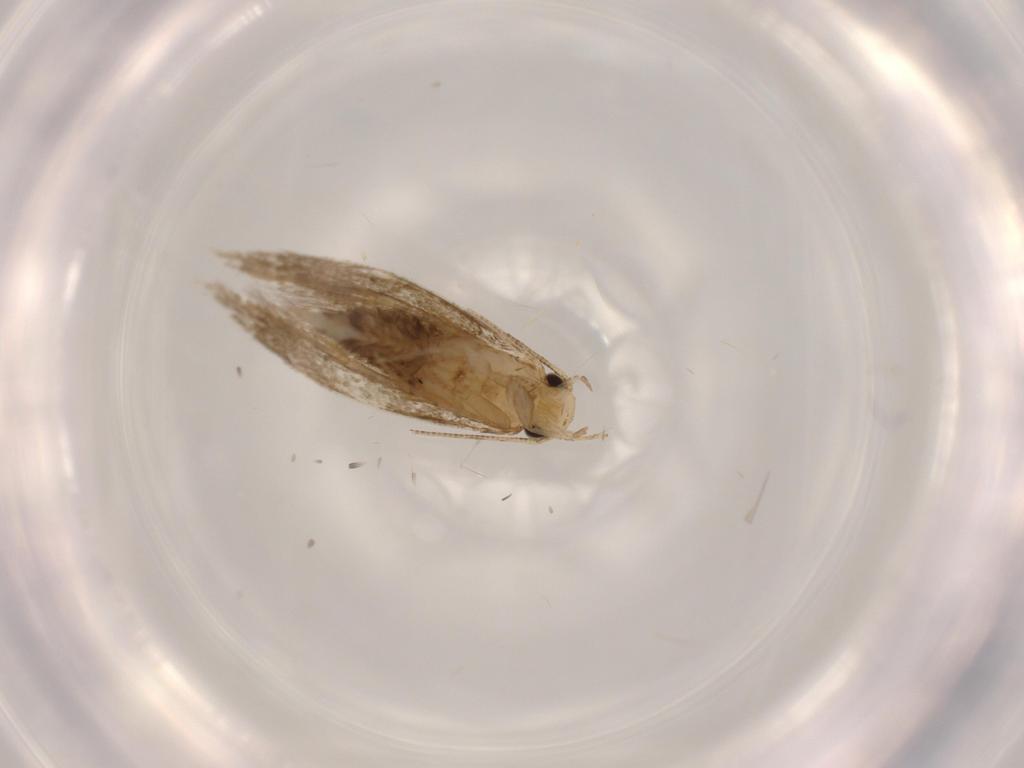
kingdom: Animalia
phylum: Arthropoda
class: Insecta
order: Lepidoptera
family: Tineidae
